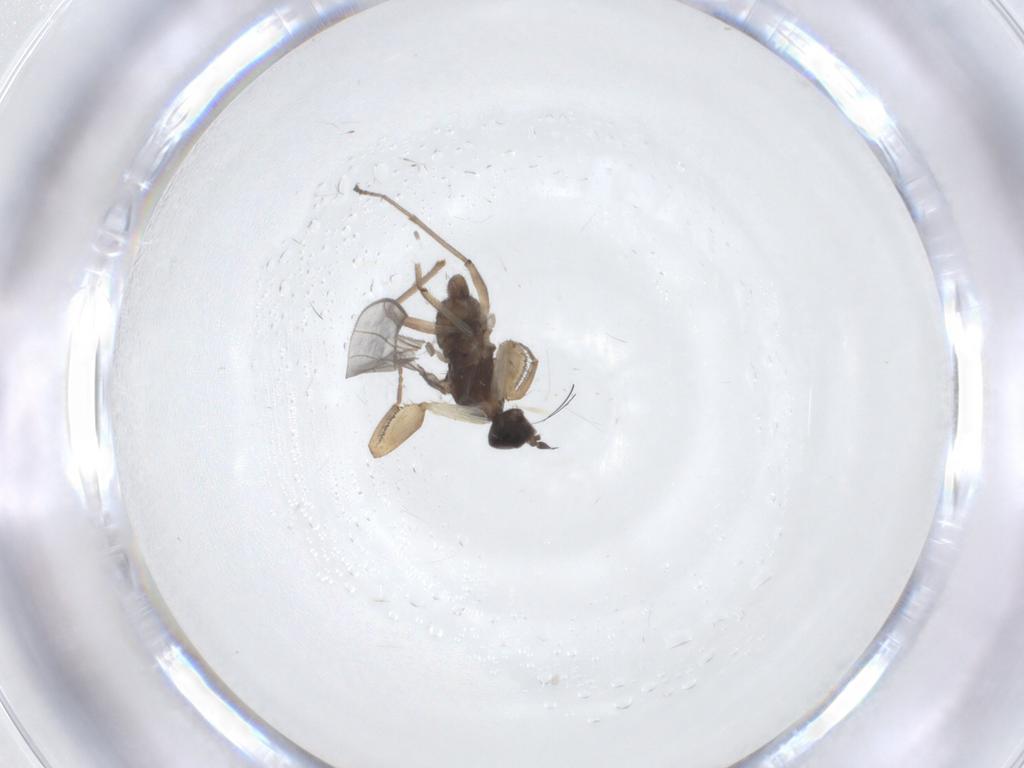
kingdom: Animalia
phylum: Arthropoda
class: Insecta
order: Diptera
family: Empididae
